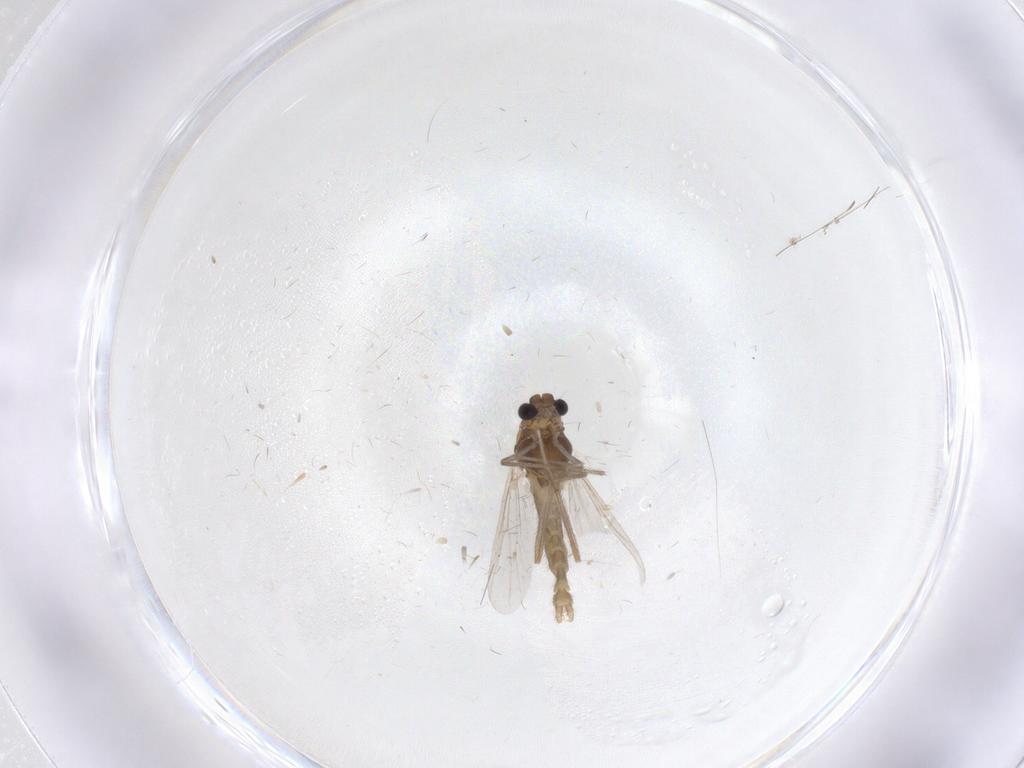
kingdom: Animalia
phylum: Arthropoda
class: Insecta
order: Diptera
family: Chironomidae
